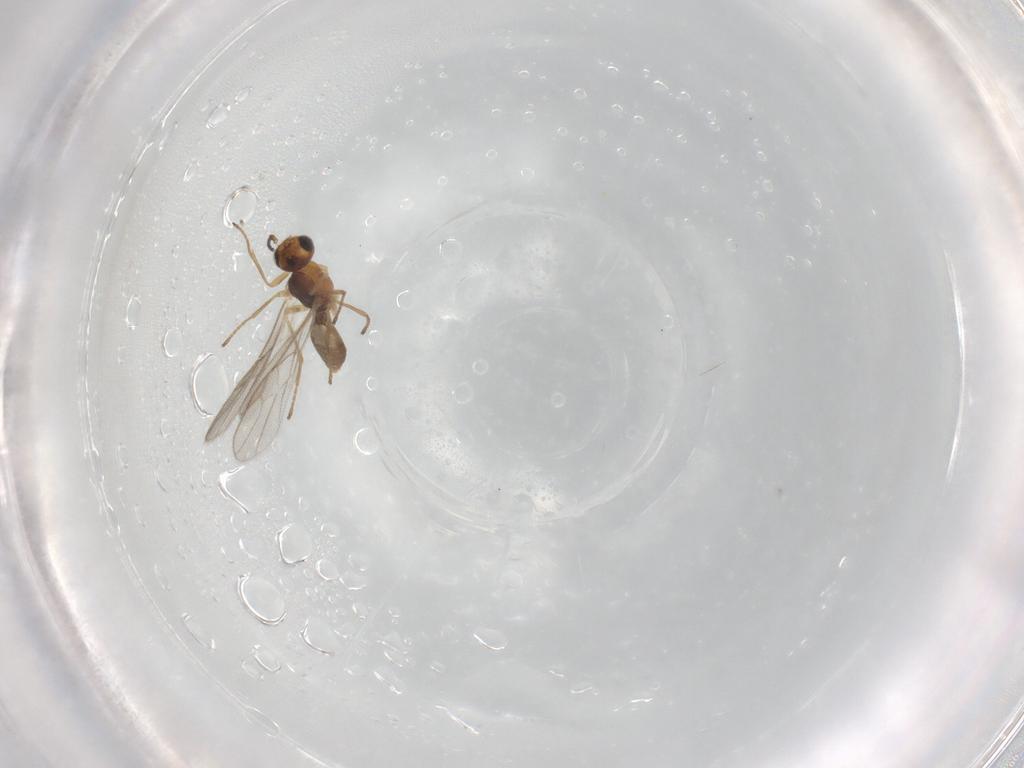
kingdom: Animalia
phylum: Arthropoda
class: Insecta
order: Hymenoptera
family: Braconidae
